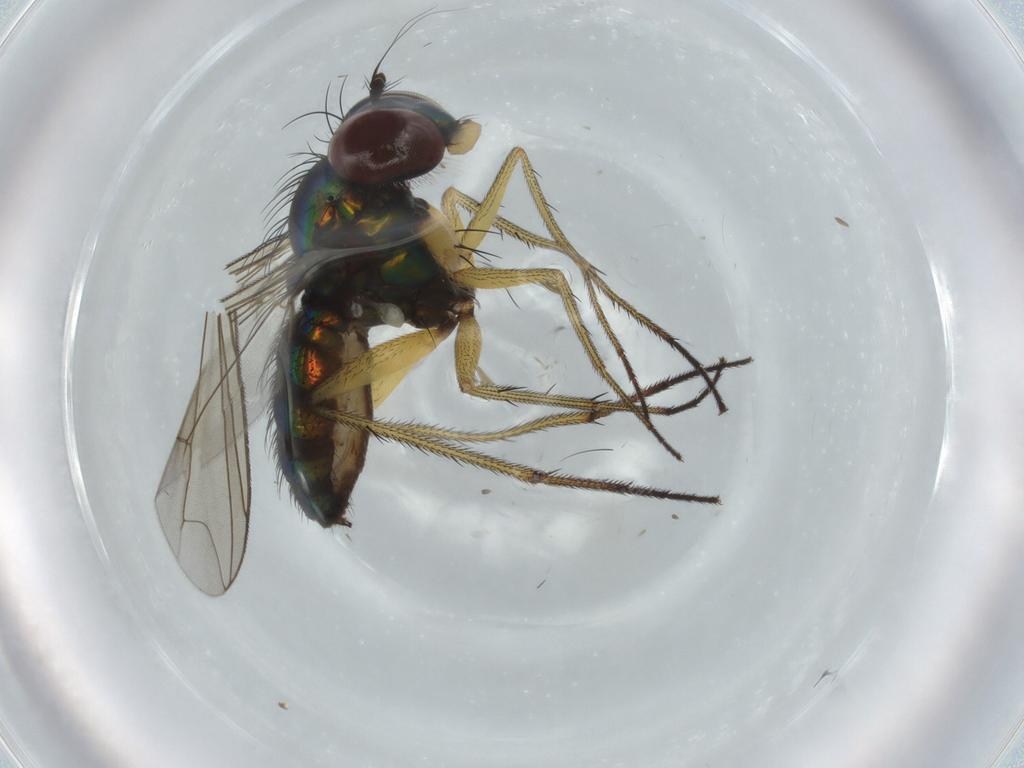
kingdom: Animalia
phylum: Arthropoda
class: Insecta
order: Diptera
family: Dolichopodidae
